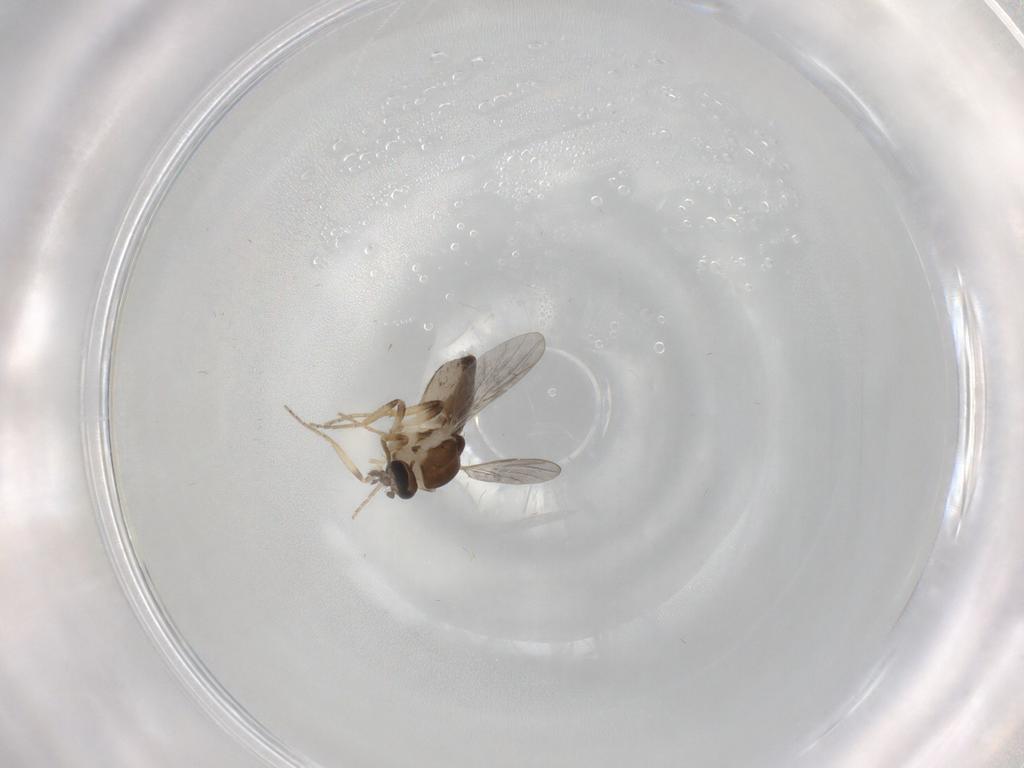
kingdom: Animalia
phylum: Arthropoda
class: Insecta
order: Diptera
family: Ceratopogonidae
